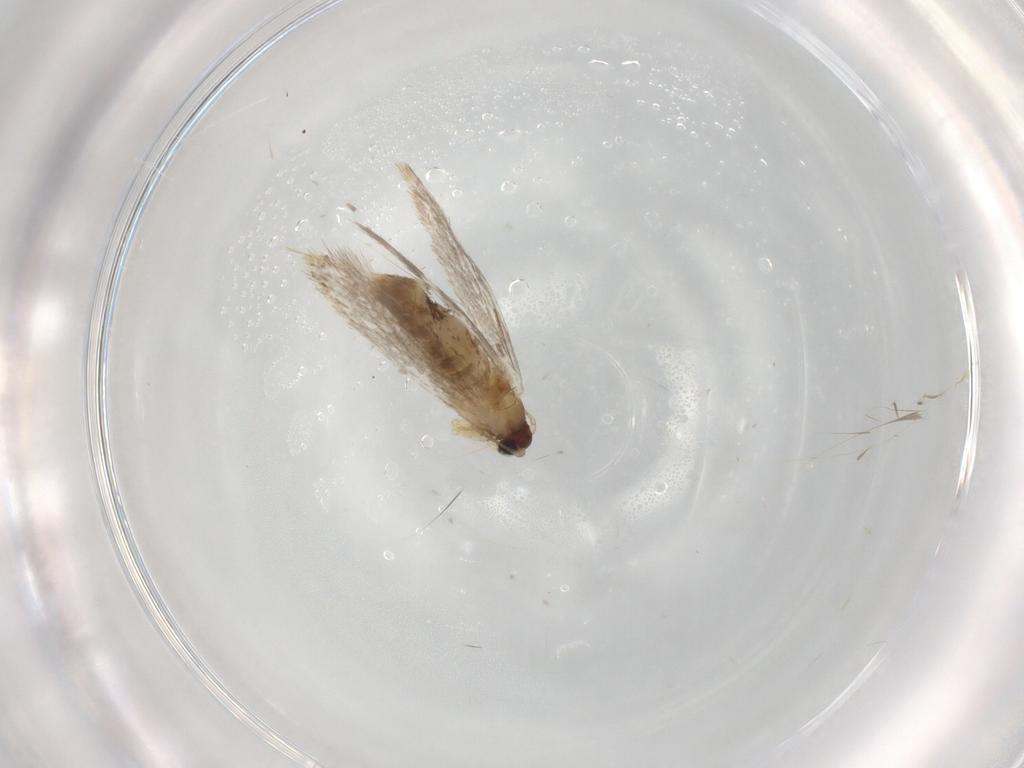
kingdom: Animalia
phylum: Arthropoda
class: Insecta
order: Lepidoptera
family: Tineidae
